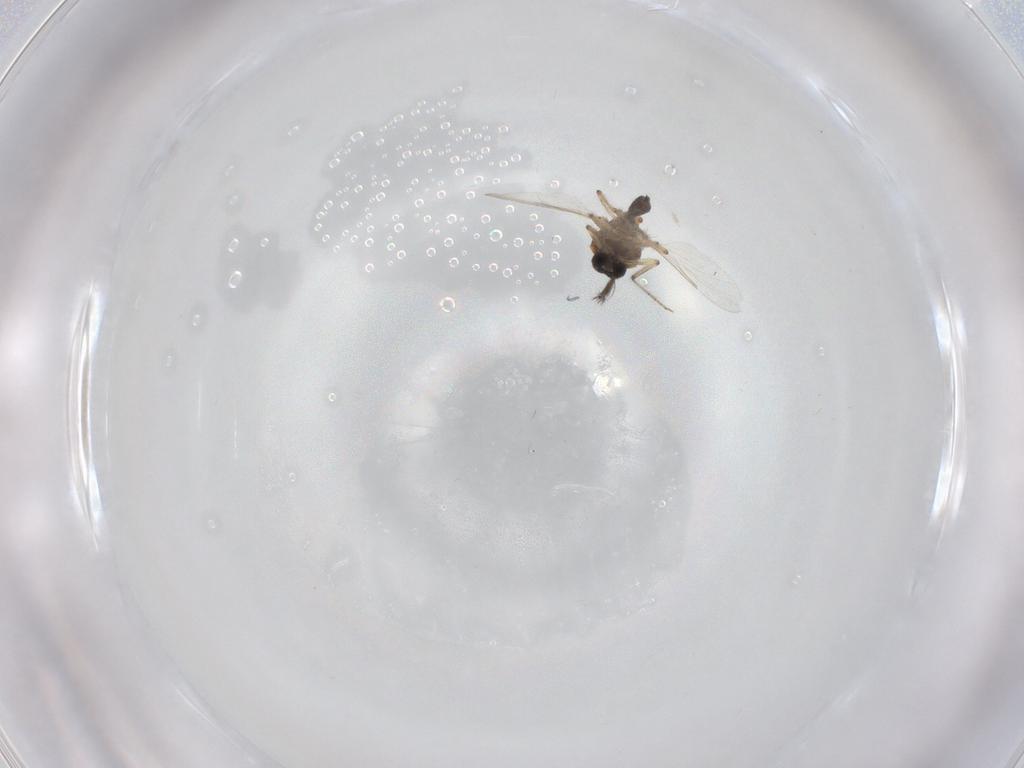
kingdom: Animalia
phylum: Arthropoda
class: Insecta
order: Diptera
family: Ceratopogonidae
